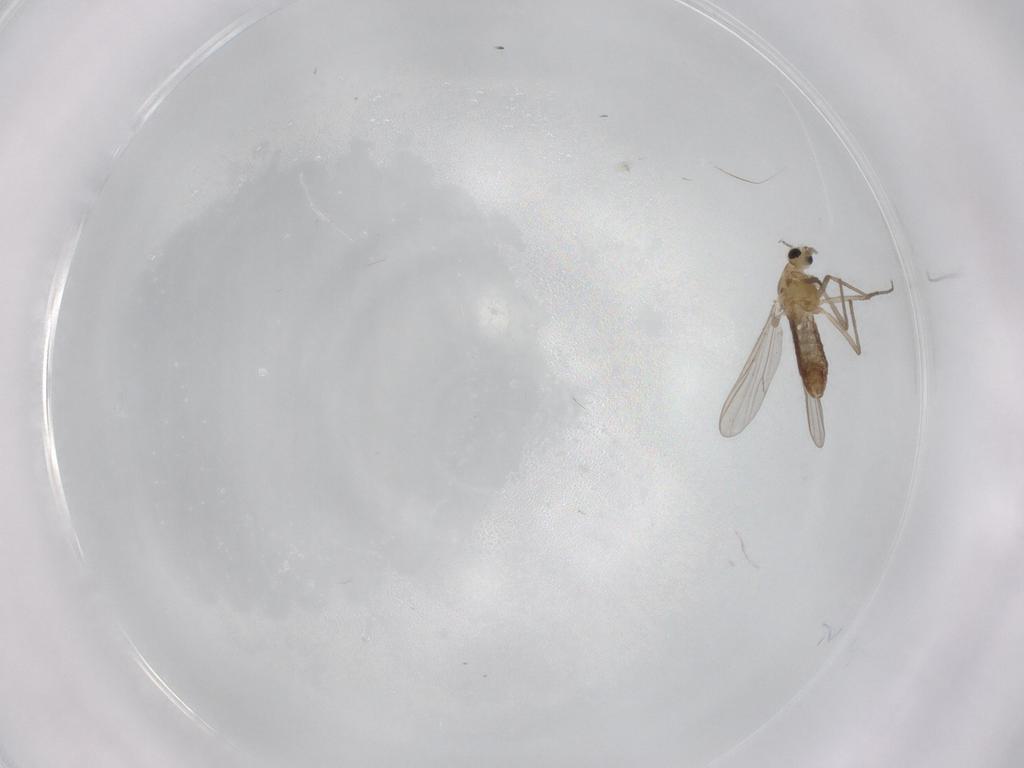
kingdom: Animalia
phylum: Arthropoda
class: Insecta
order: Diptera
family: Chironomidae
